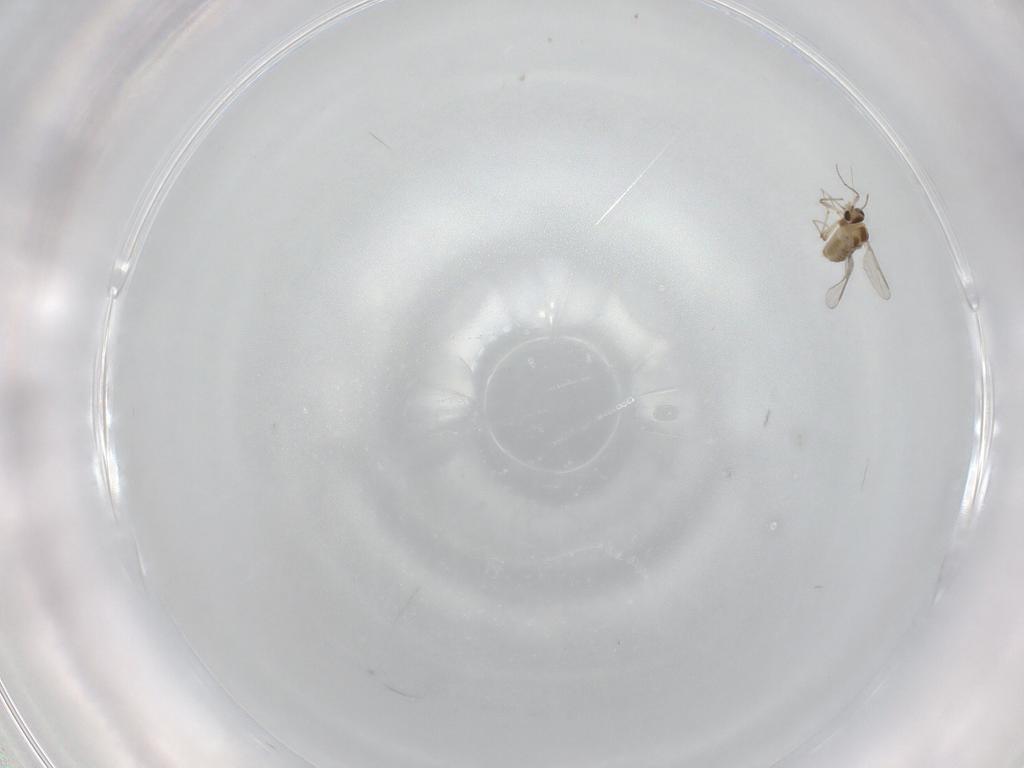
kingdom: Animalia
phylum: Arthropoda
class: Insecta
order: Diptera
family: Chironomidae
